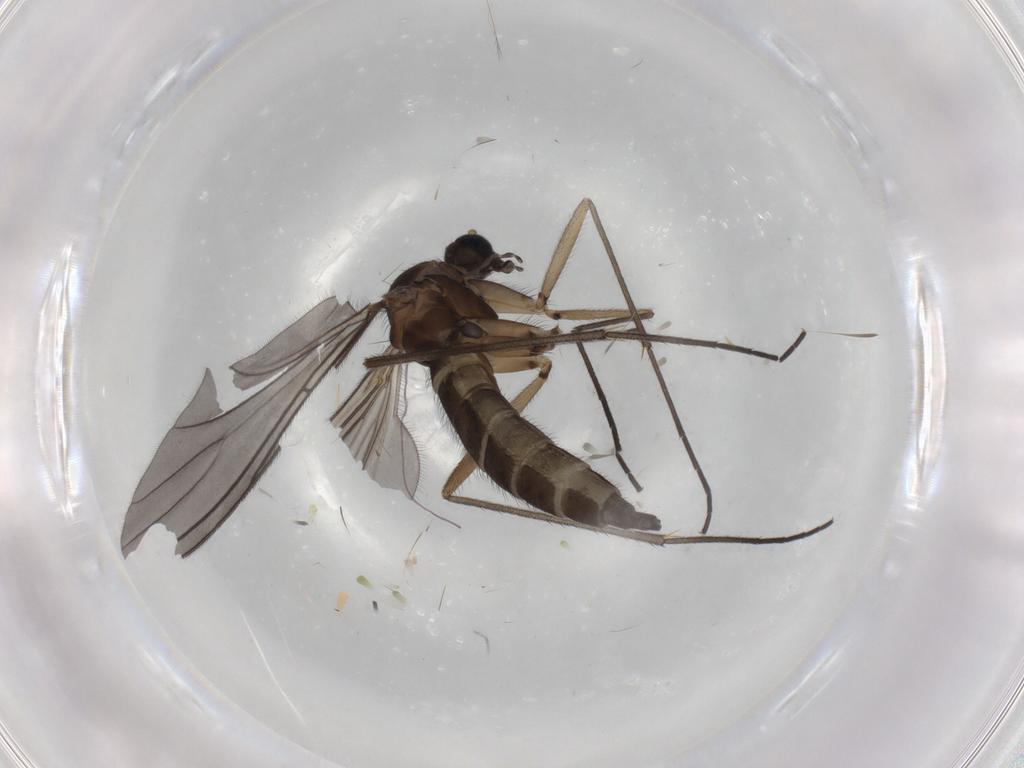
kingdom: Animalia
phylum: Arthropoda
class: Insecta
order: Diptera
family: Sciaridae
